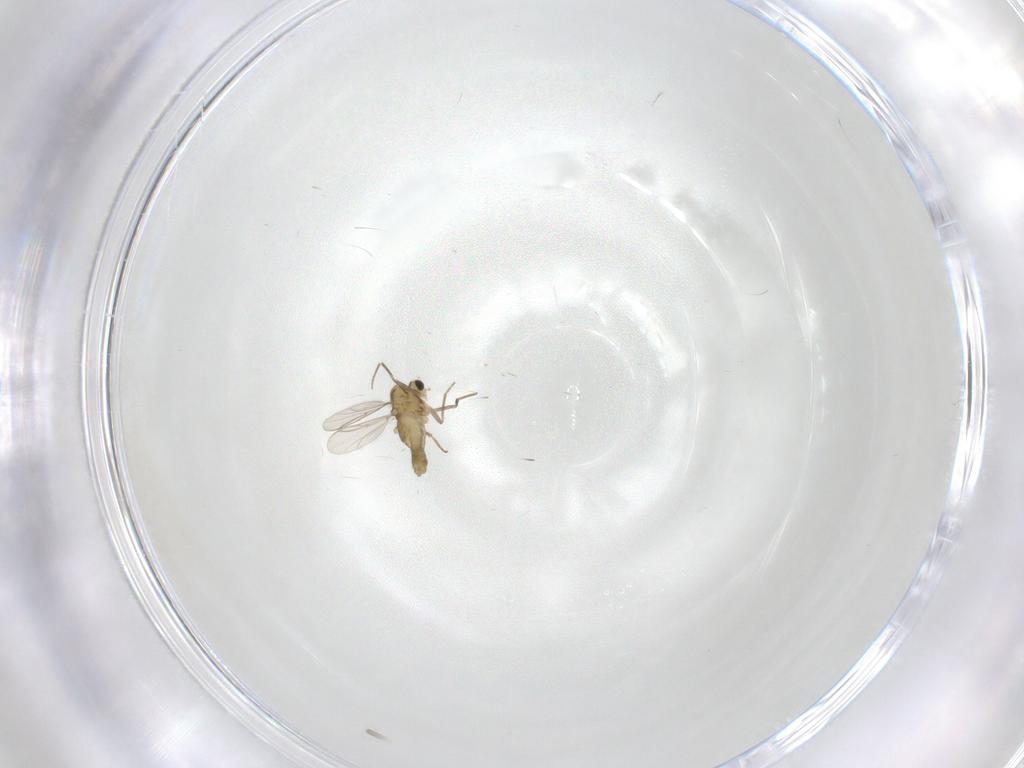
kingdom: Animalia
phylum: Arthropoda
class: Insecta
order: Diptera
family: Chironomidae
